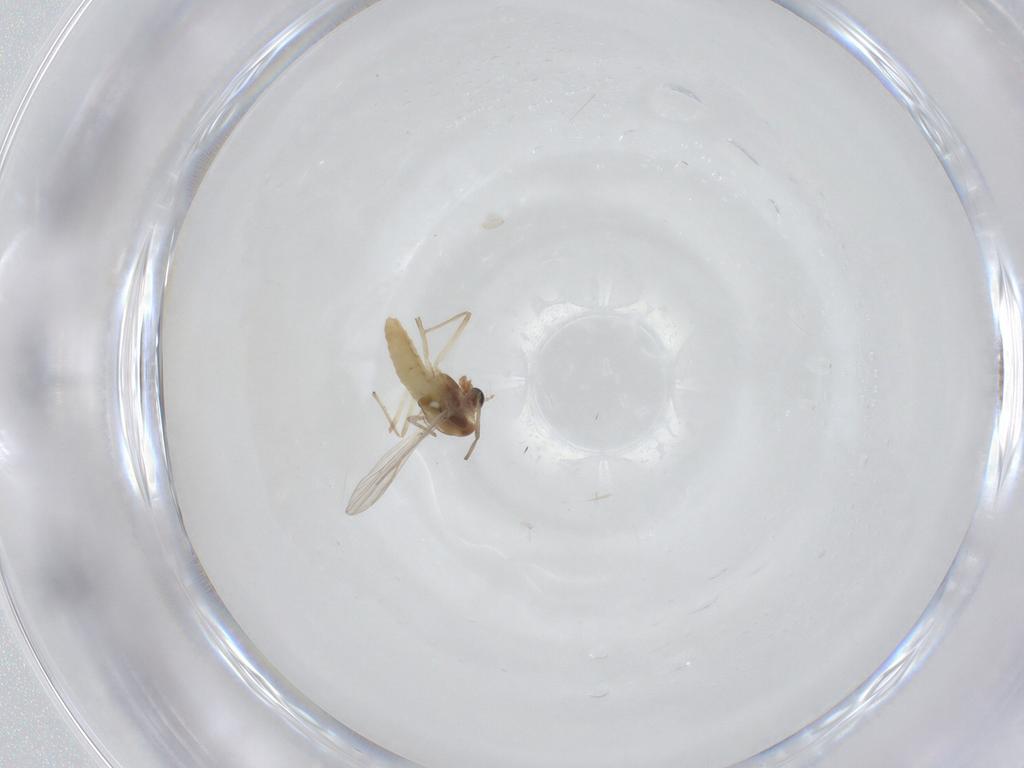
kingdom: Animalia
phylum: Arthropoda
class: Insecta
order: Diptera
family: Chironomidae
